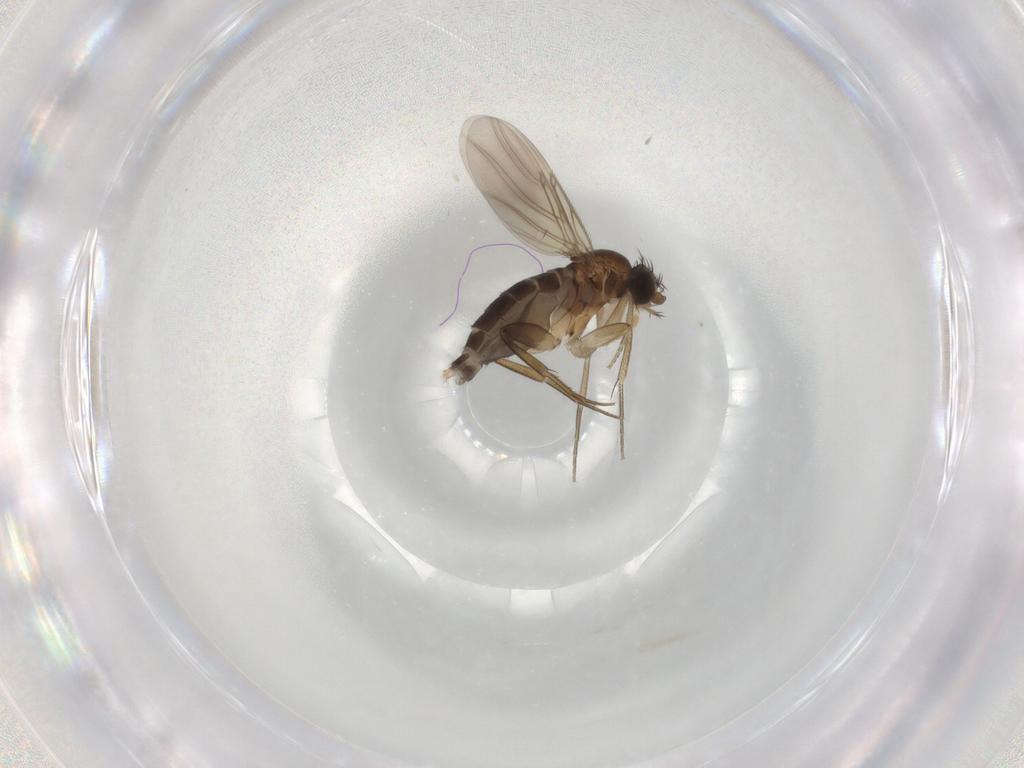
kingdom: Animalia
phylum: Arthropoda
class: Insecta
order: Diptera
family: Phoridae
